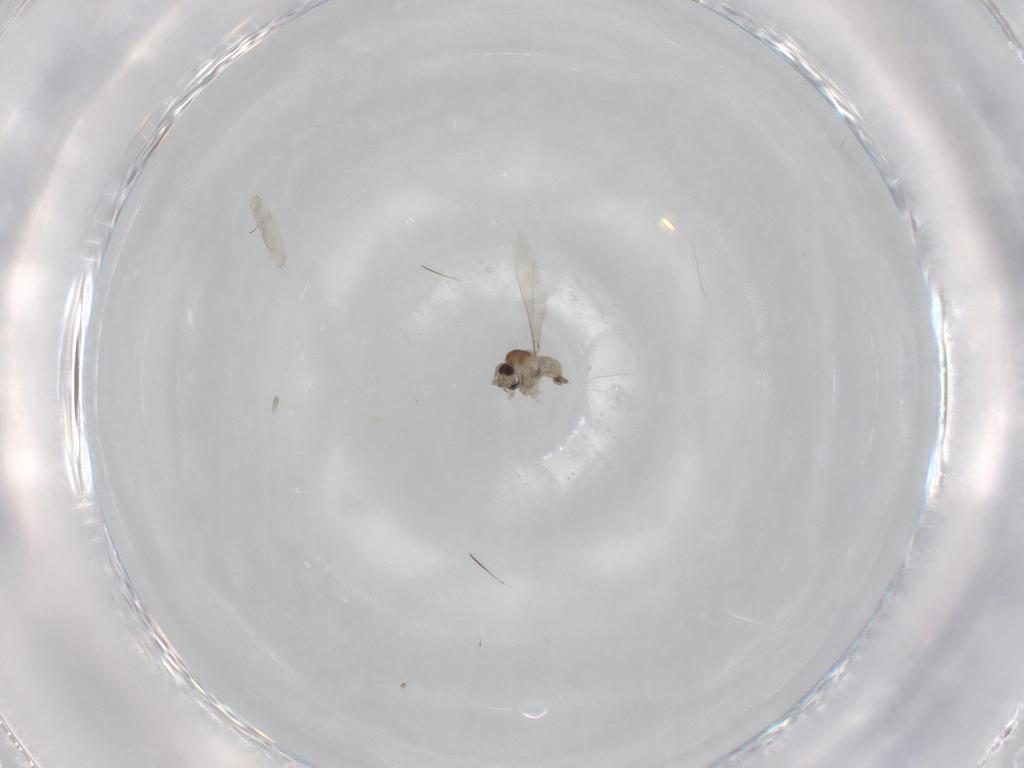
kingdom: Animalia
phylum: Arthropoda
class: Insecta
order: Diptera
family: Cecidomyiidae
